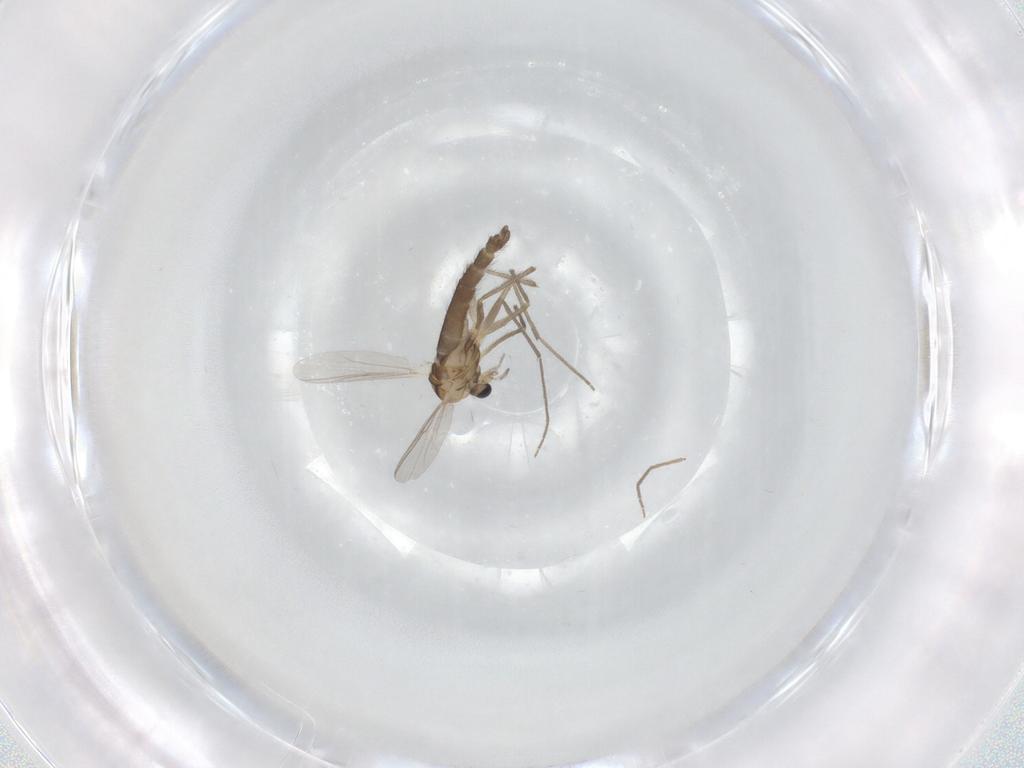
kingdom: Animalia
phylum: Arthropoda
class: Insecta
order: Diptera
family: Chironomidae
